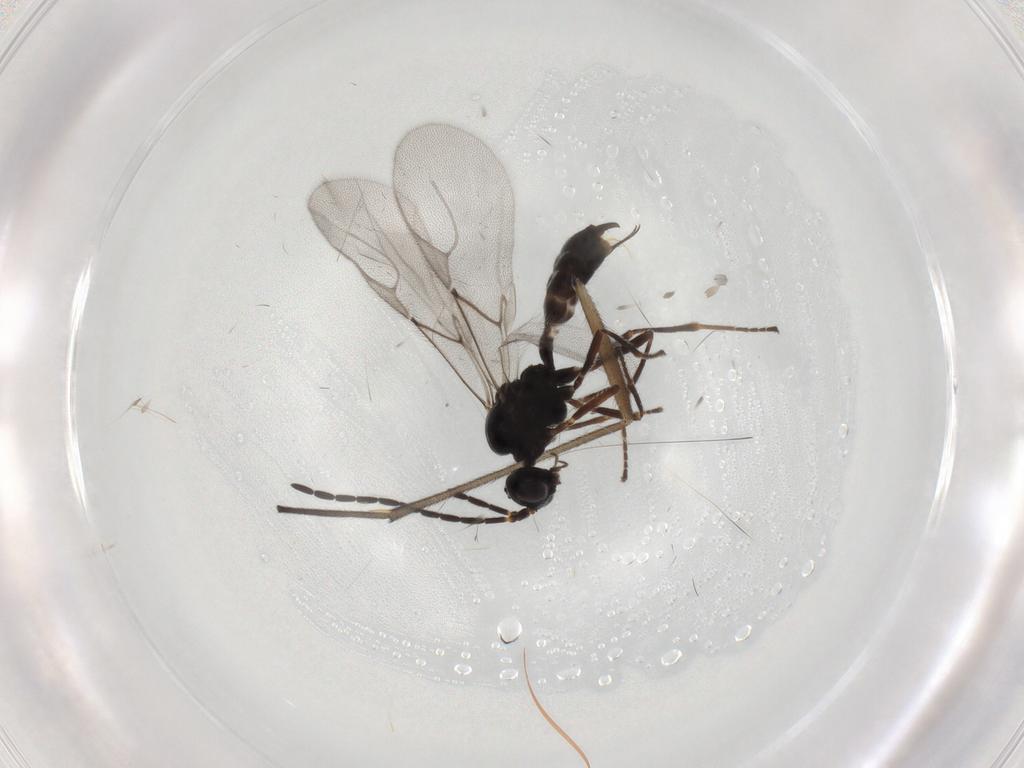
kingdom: Animalia
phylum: Arthropoda
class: Insecta
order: Hymenoptera
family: Braconidae
